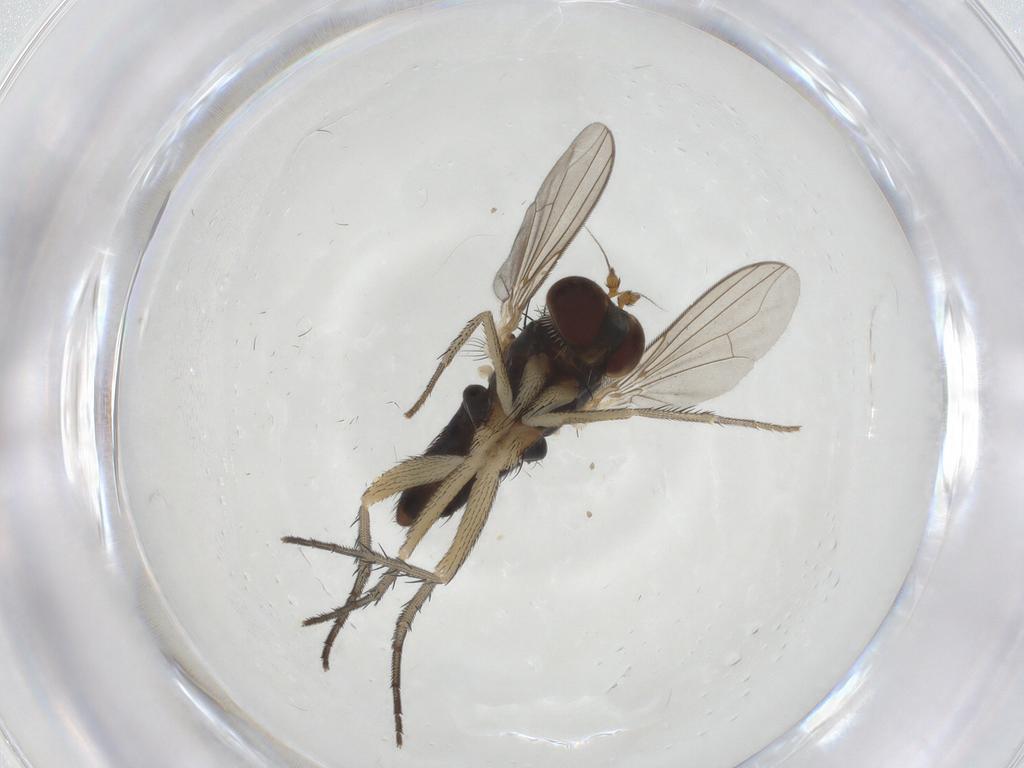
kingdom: Animalia
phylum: Arthropoda
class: Insecta
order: Diptera
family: Dolichopodidae
